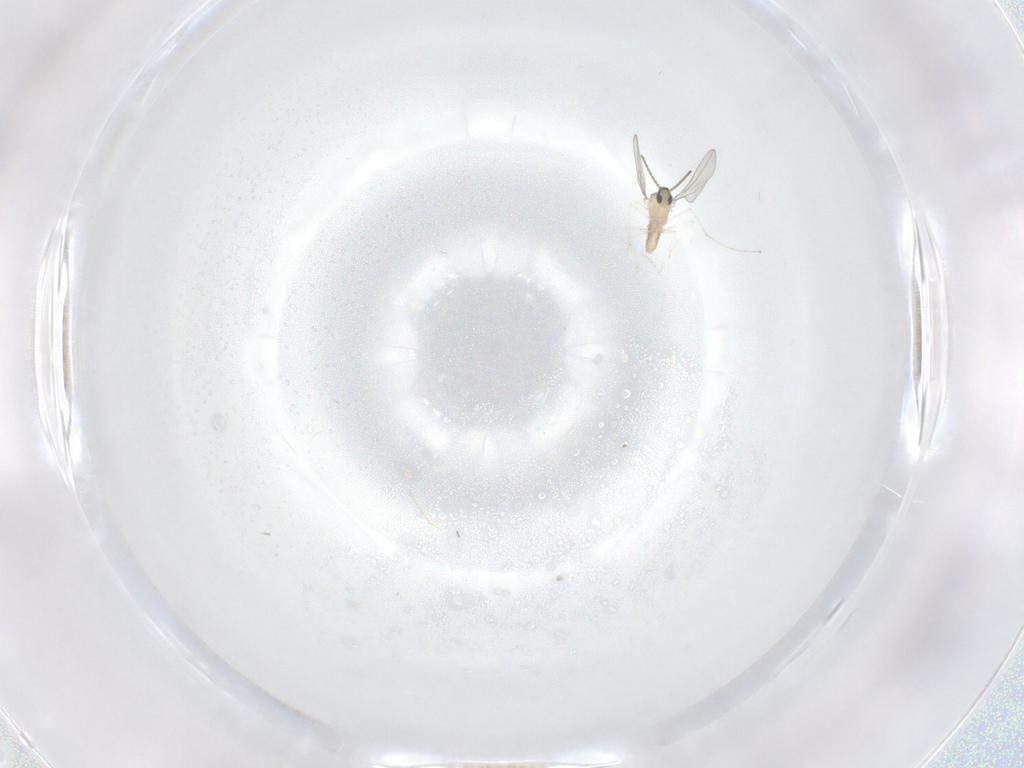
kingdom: Animalia
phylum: Arthropoda
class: Insecta
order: Diptera
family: Cecidomyiidae
